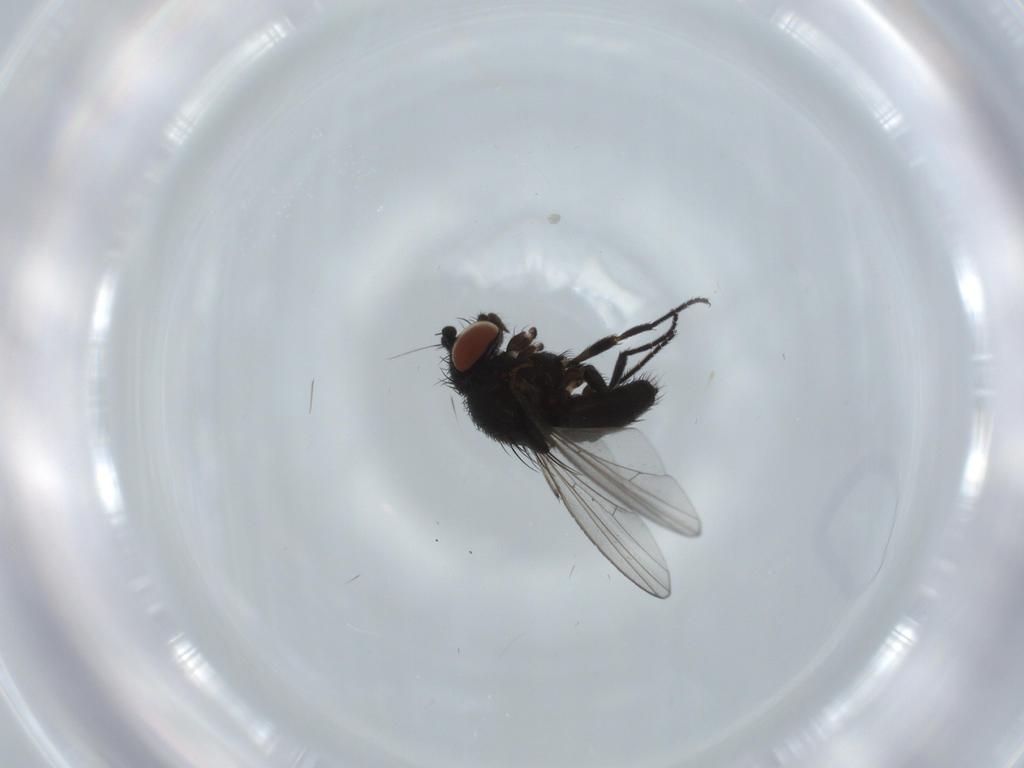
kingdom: Animalia
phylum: Arthropoda
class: Insecta
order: Diptera
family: Milichiidae
